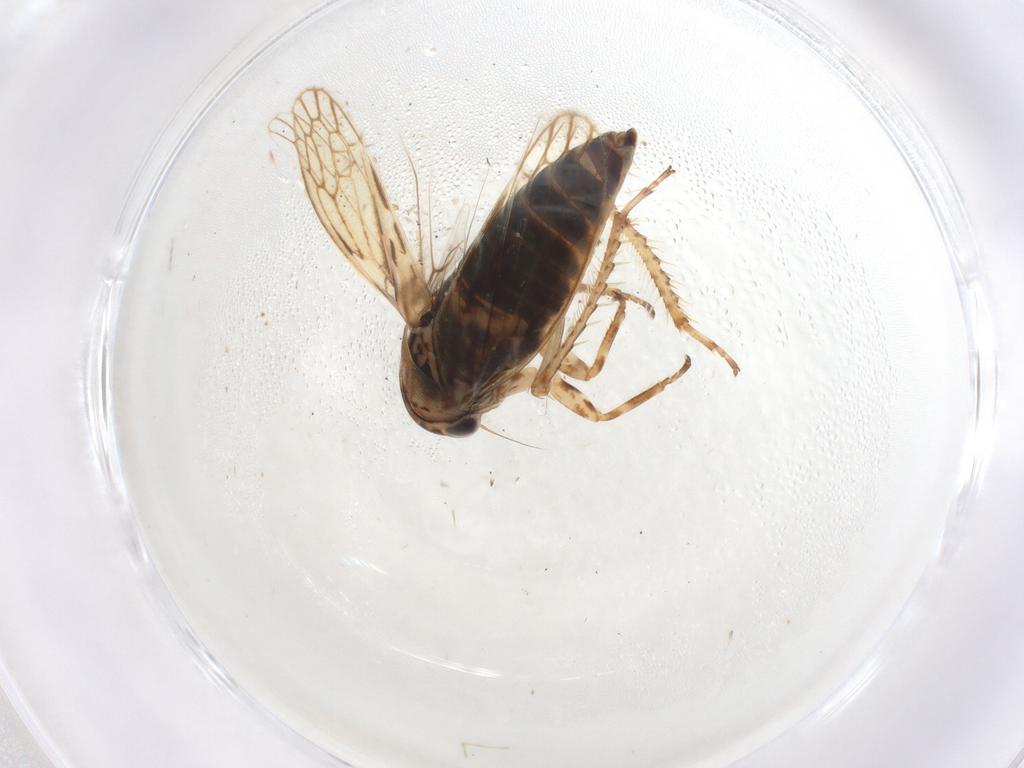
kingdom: Animalia
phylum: Arthropoda
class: Insecta
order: Hemiptera
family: Cicadellidae
